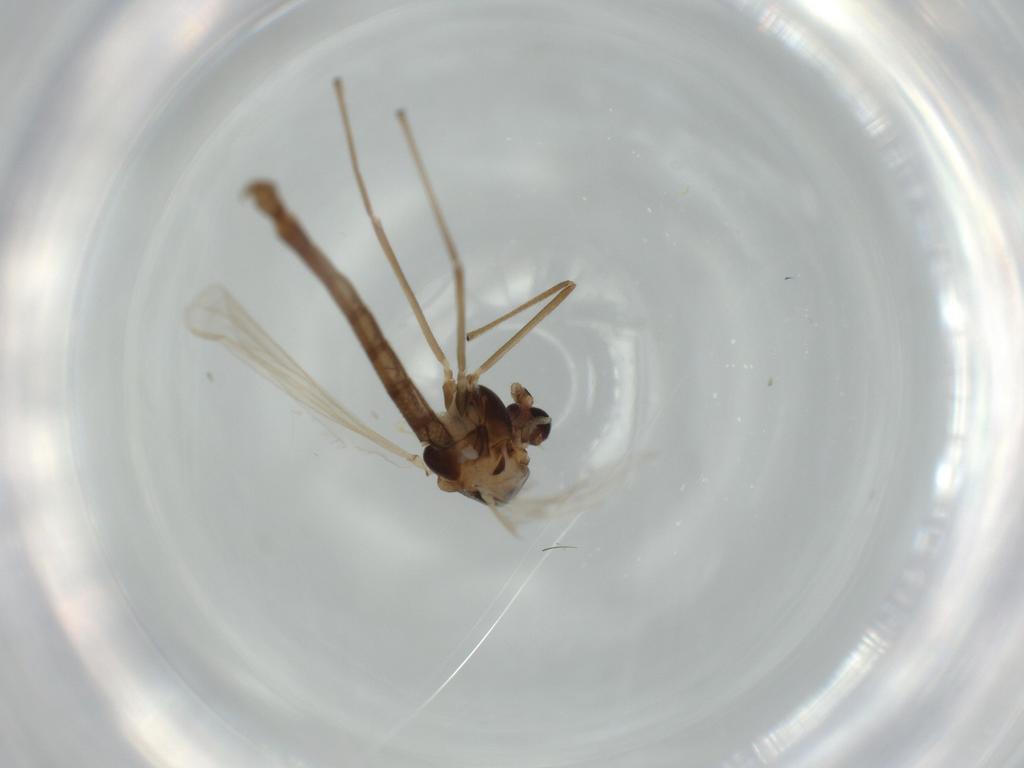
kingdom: Animalia
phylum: Arthropoda
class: Insecta
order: Diptera
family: Chironomidae
